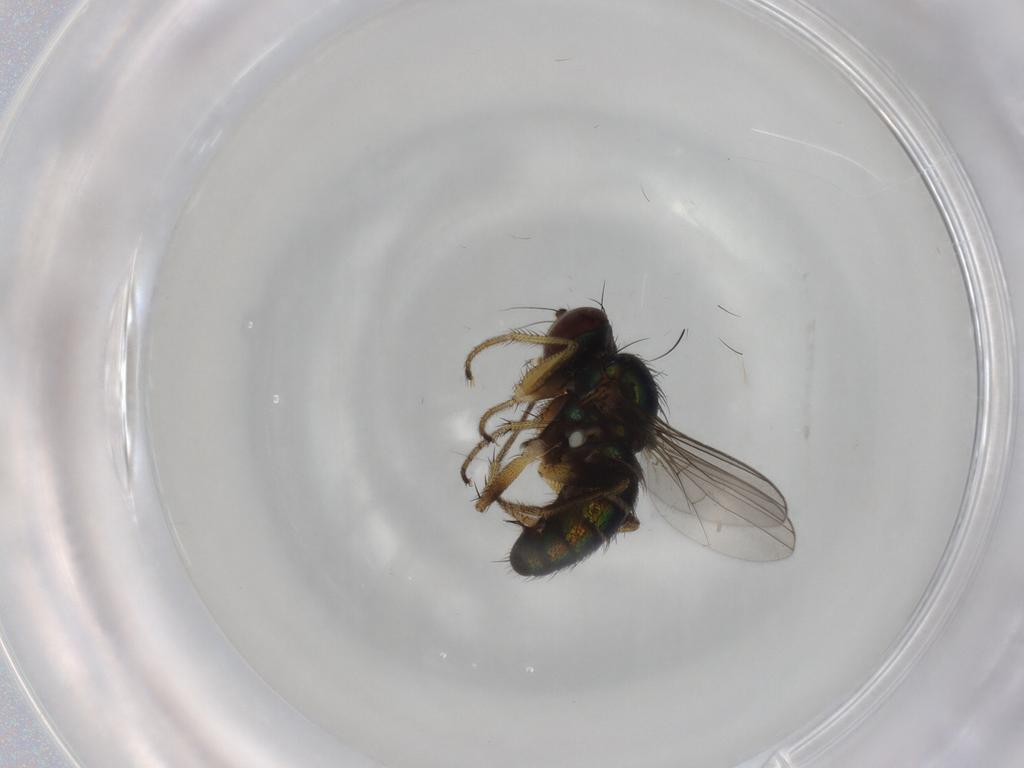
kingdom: Animalia
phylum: Arthropoda
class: Insecta
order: Diptera
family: Dolichopodidae
